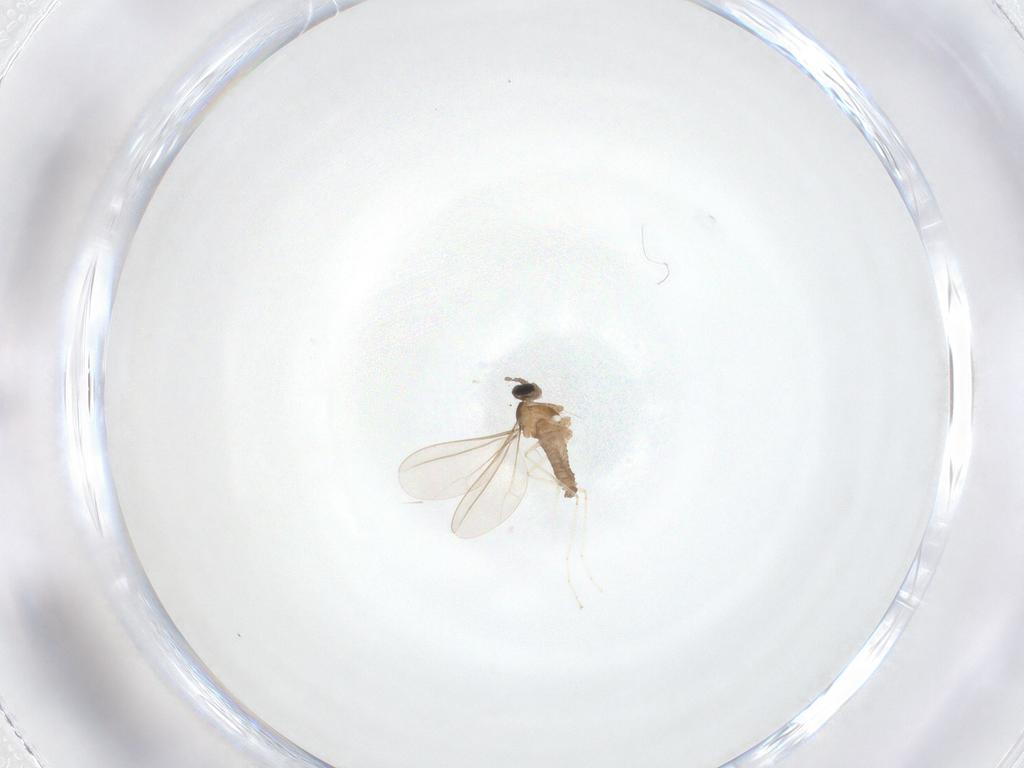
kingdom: Animalia
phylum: Arthropoda
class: Insecta
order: Diptera
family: Cecidomyiidae
